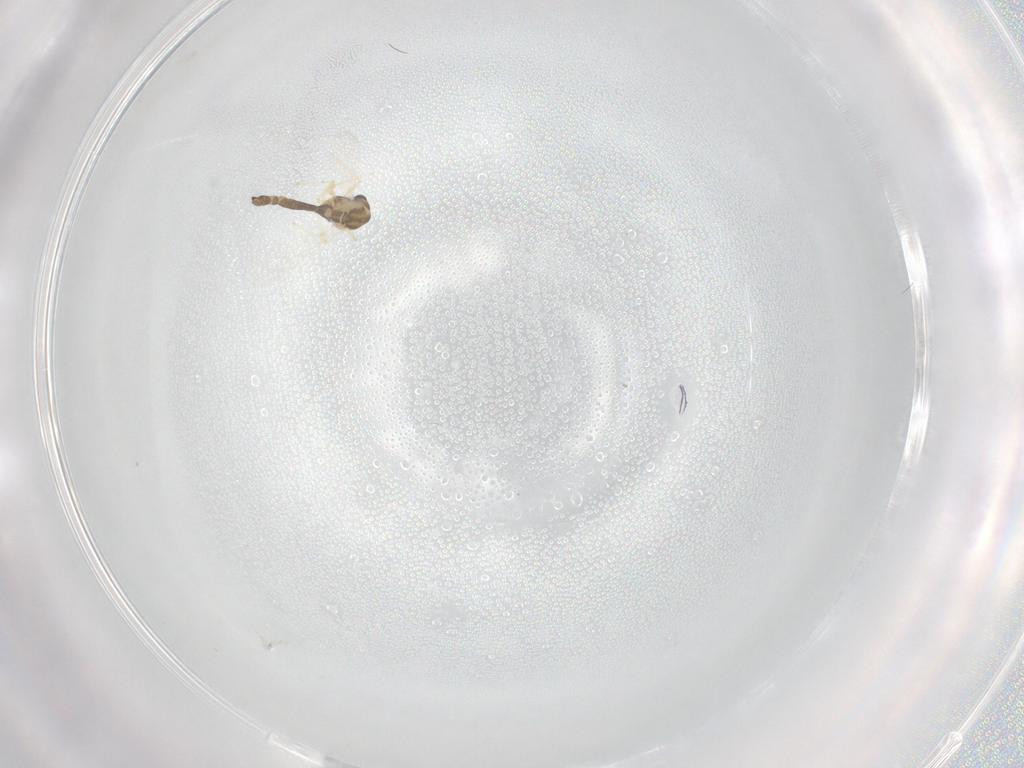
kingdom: Animalia
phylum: Arthropoda
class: Insecta
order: Diptera
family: Chironomidae
